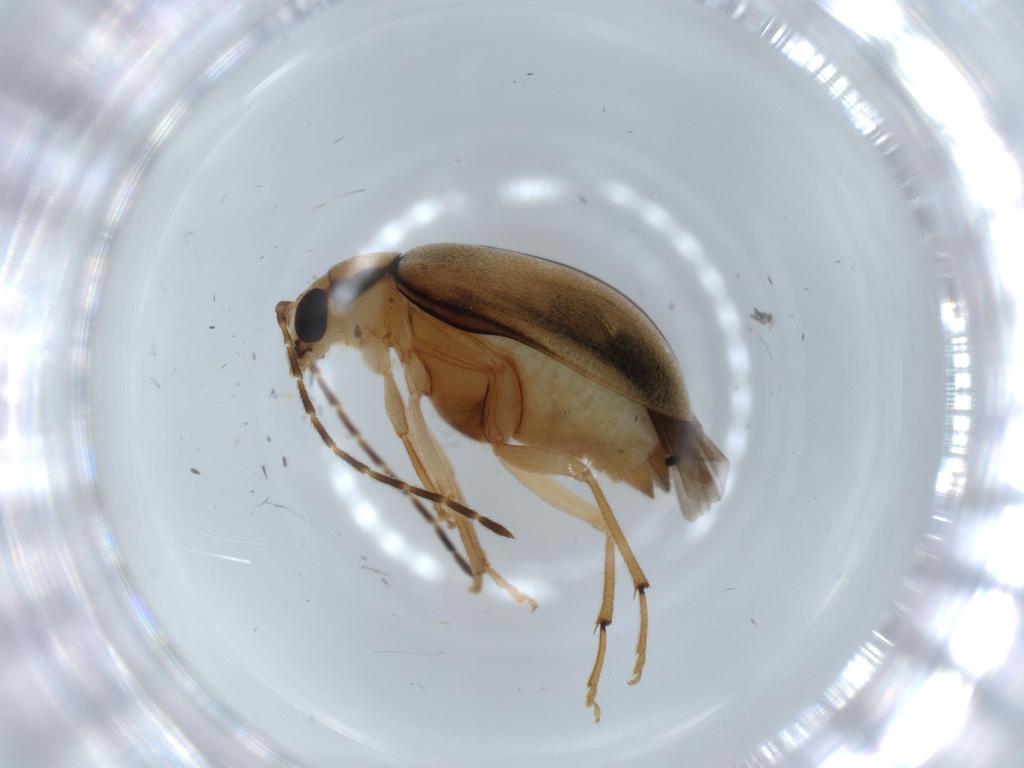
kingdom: Animalia
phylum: Arthropoda
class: Insecta
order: Coleoptera
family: Chrysomelidae
